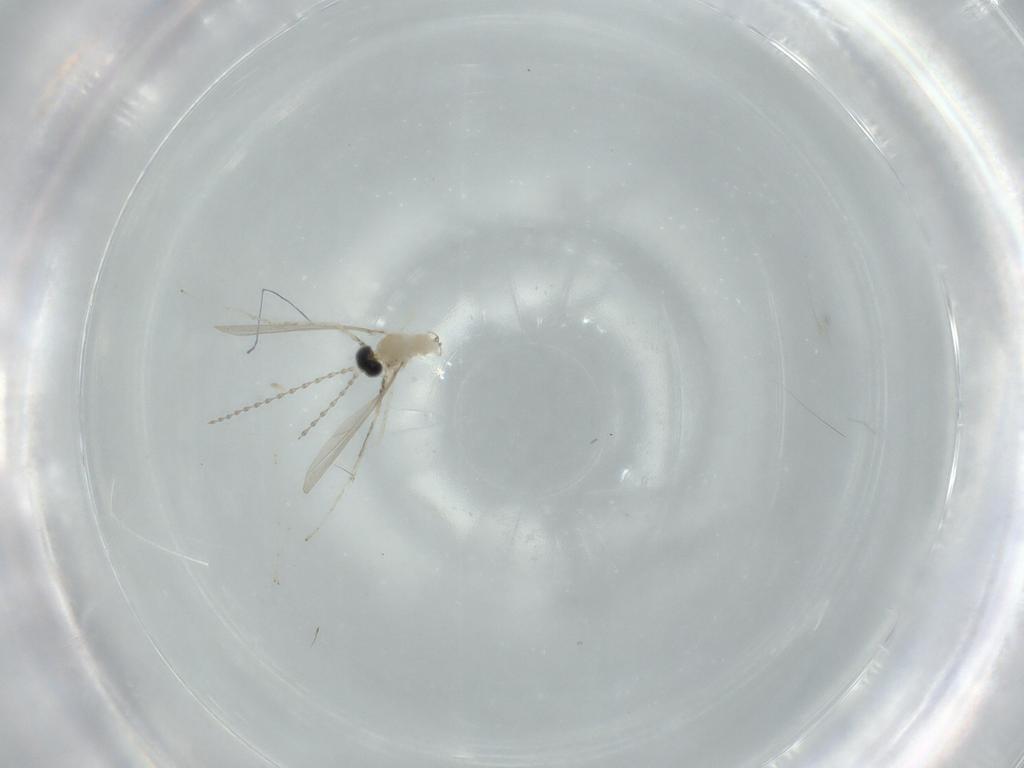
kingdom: Animalia
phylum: Arthropoda
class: Insecta
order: Diptera
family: Cecidomyiidae
